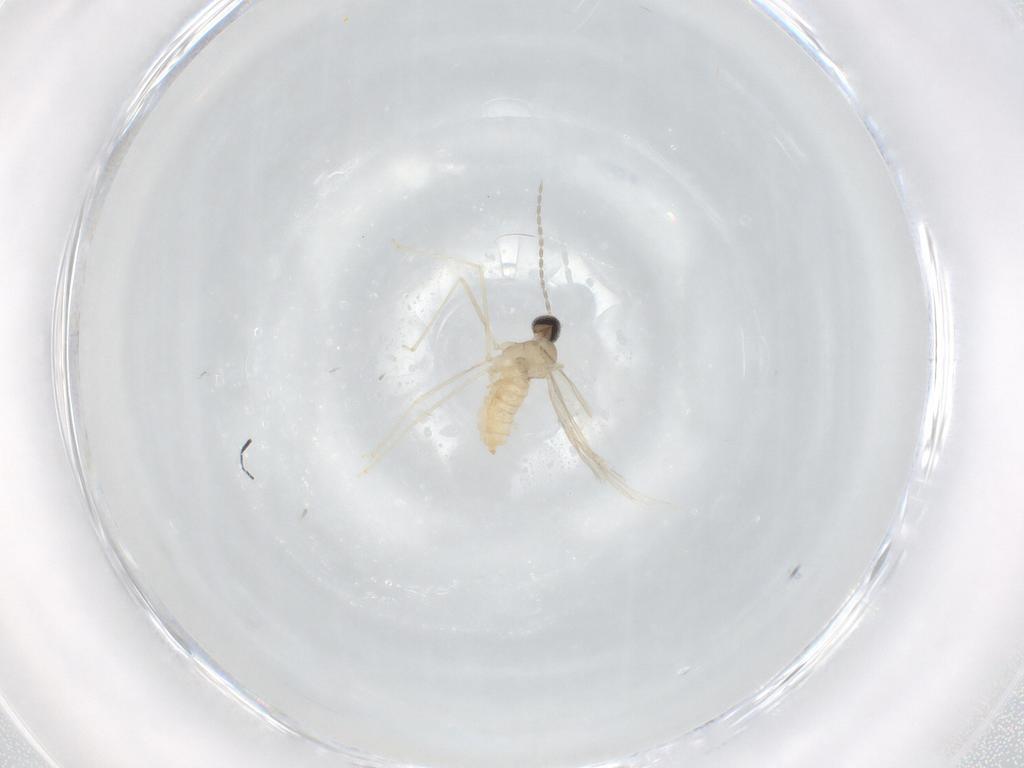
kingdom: Animalia
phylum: Arthropoda
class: Insecta
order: Diptera
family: Cecidomyiidae
